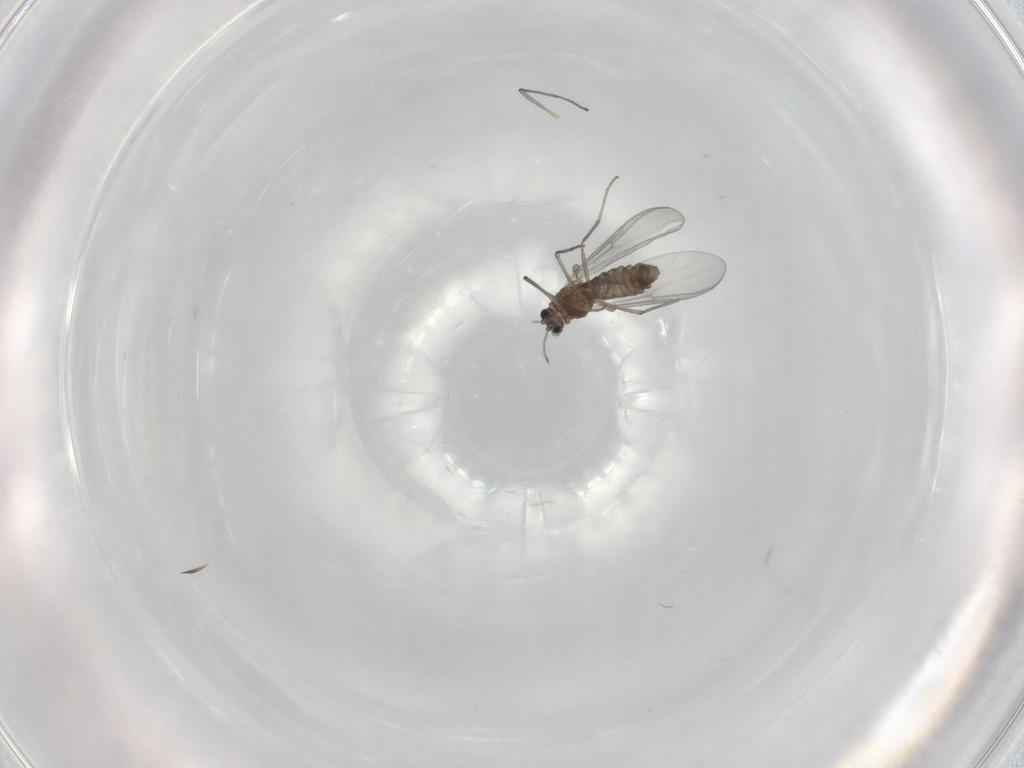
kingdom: Animalia
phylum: Arthropoda
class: Insecta
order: Diptera
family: Chironomidae
